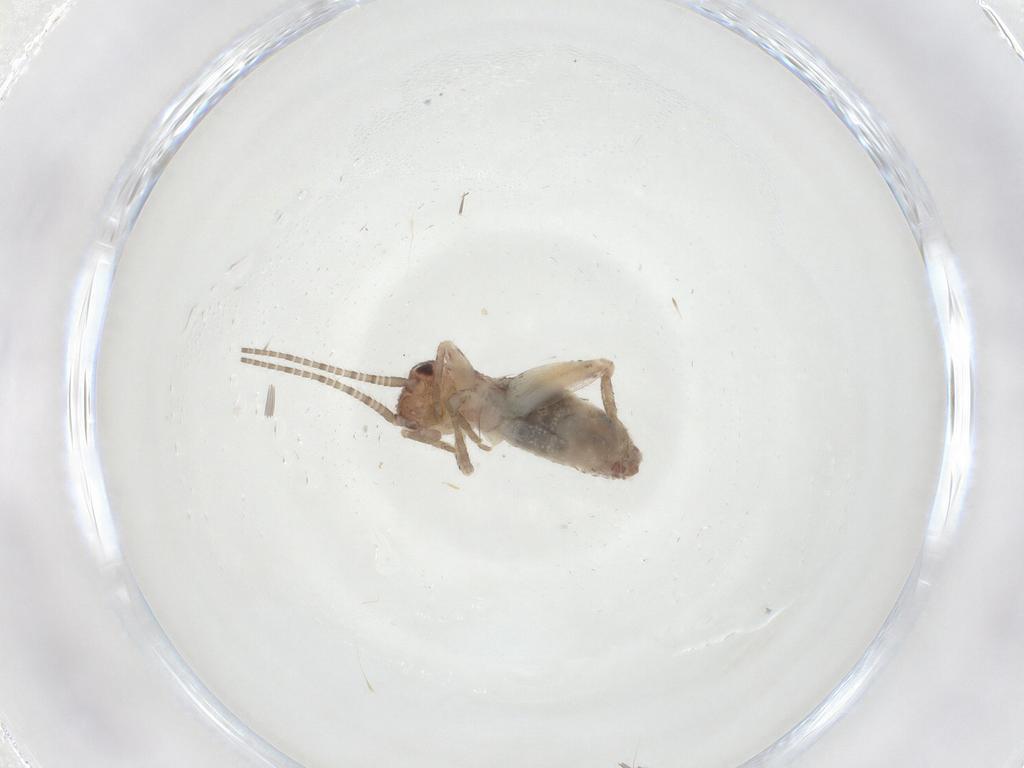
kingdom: Animalia
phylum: Arthropoda
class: Insecta
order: Orthoptera
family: Gryllidae
